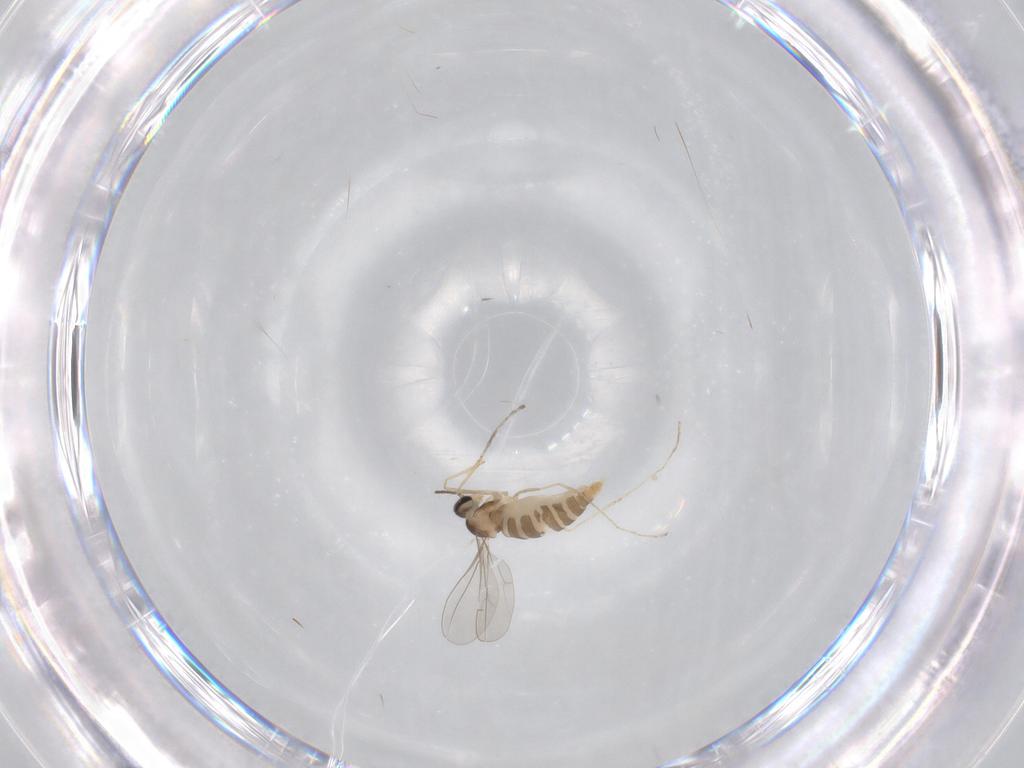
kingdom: Animalia
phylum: Arthropoda
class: Insecta
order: Diptera
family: Cecidomyiidae
